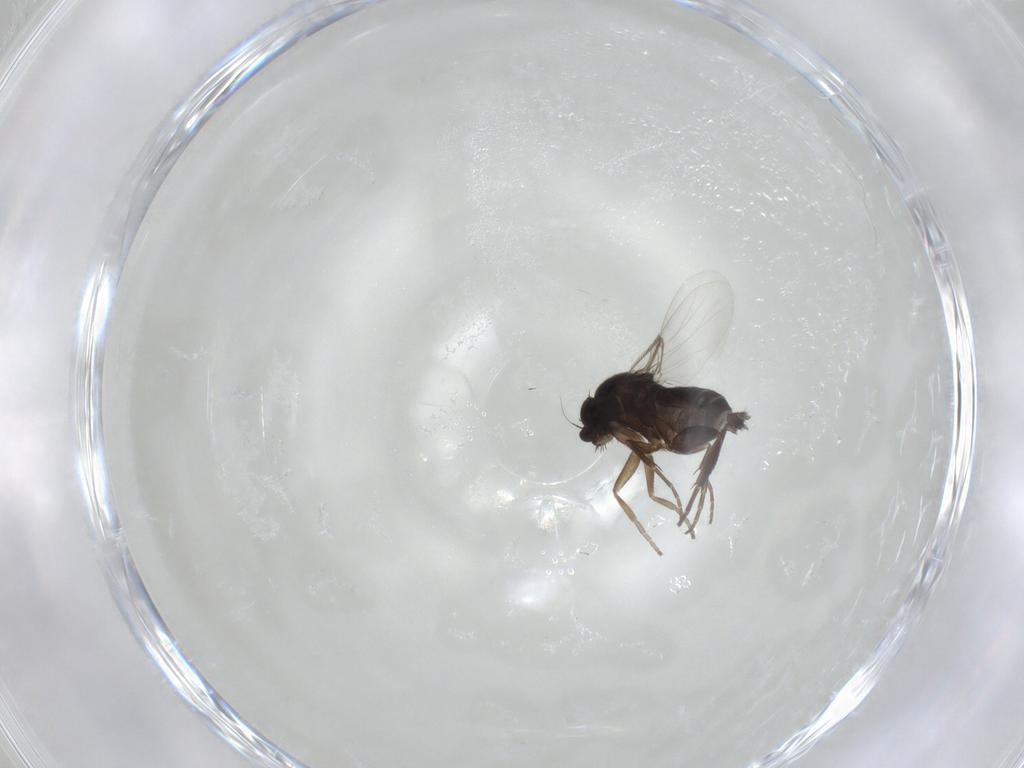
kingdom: Animalia
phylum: Arthropoda
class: Insecta
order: Diptera
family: Phoridae
